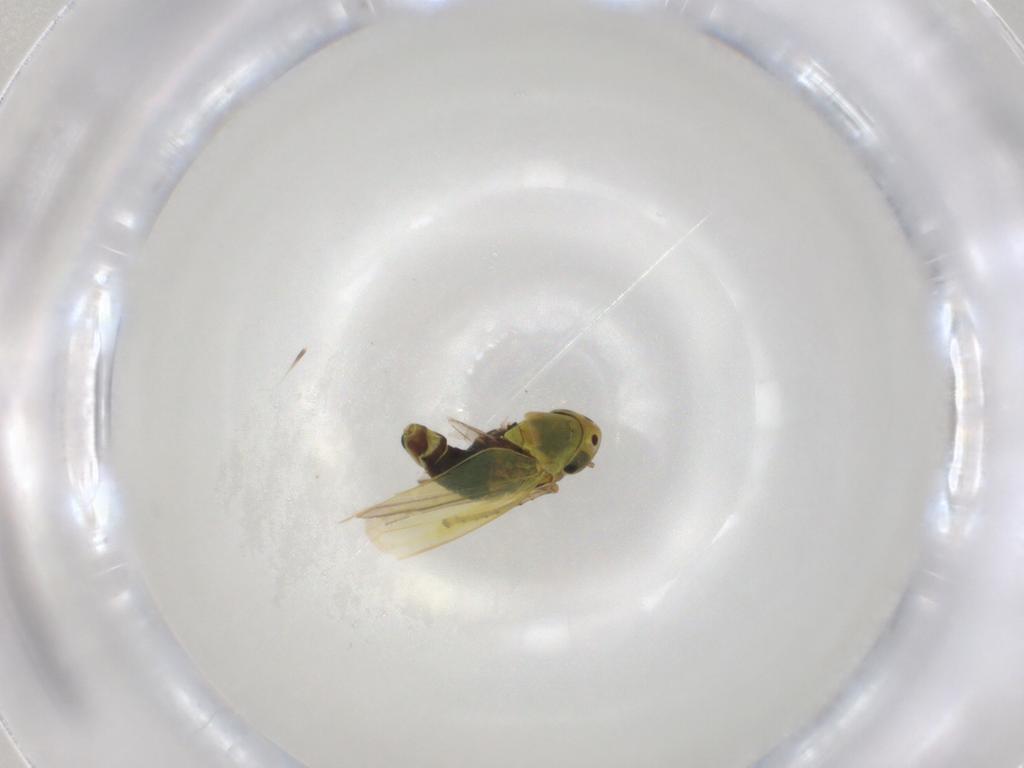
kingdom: Animalia
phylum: Arthropoda
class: Insecta
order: Hemiptera
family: Cicadellidae
